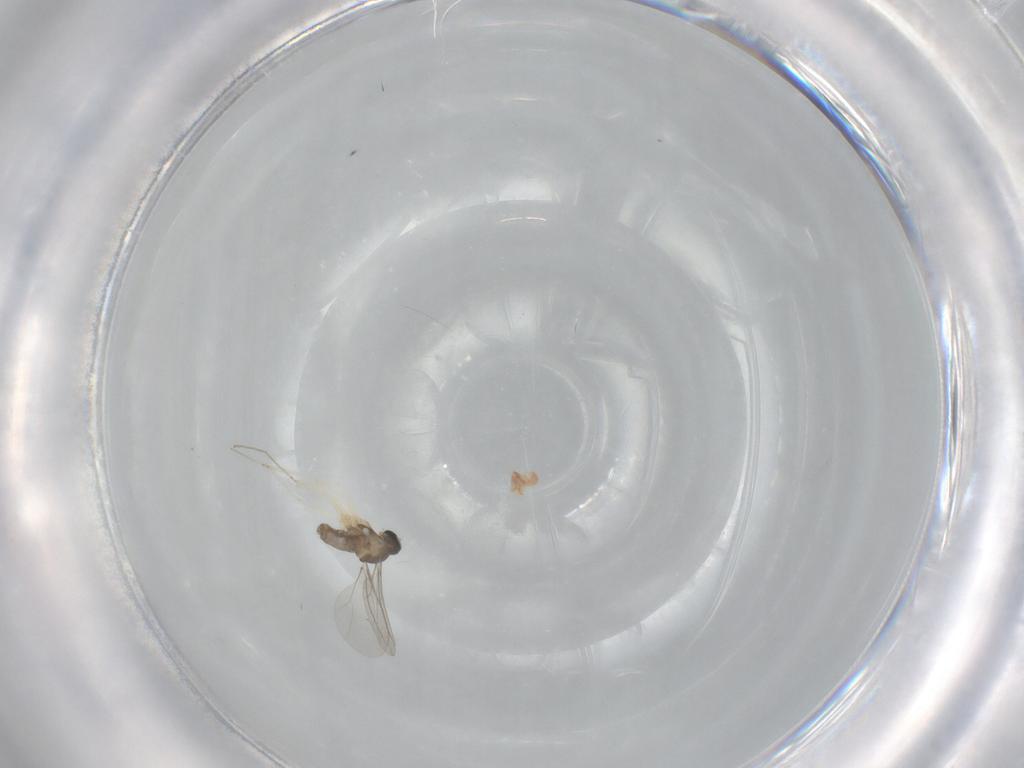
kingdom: Animalia
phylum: Arthropoda
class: Insecta
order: Diptera
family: Cecidomyiidae
